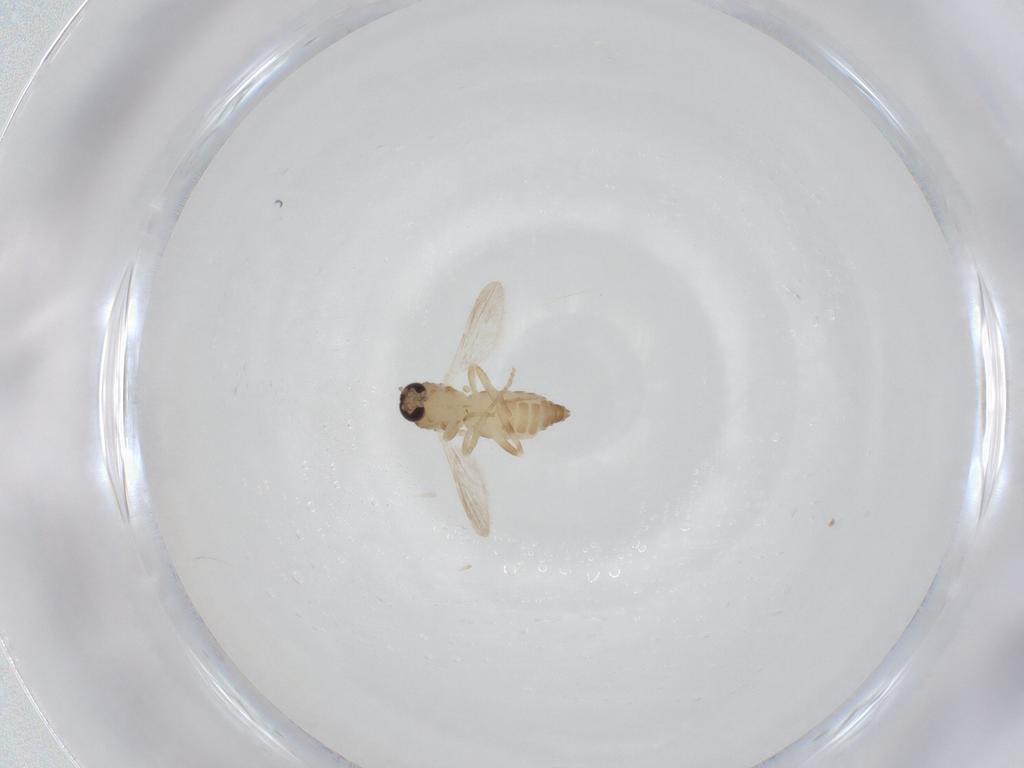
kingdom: Animalia
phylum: Arthropoda
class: Insecta
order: Diptera
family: Ceratopogonidae
